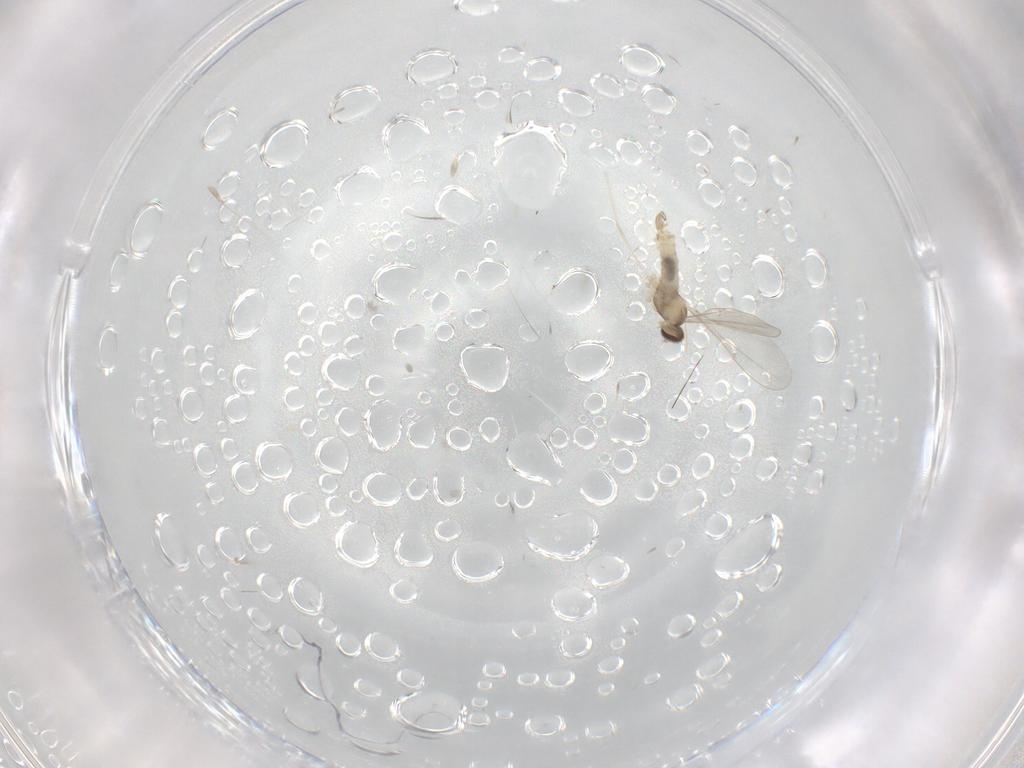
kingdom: Animalia
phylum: Arthropoda
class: Insecta
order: Diptera
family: Cecidomyiidae
